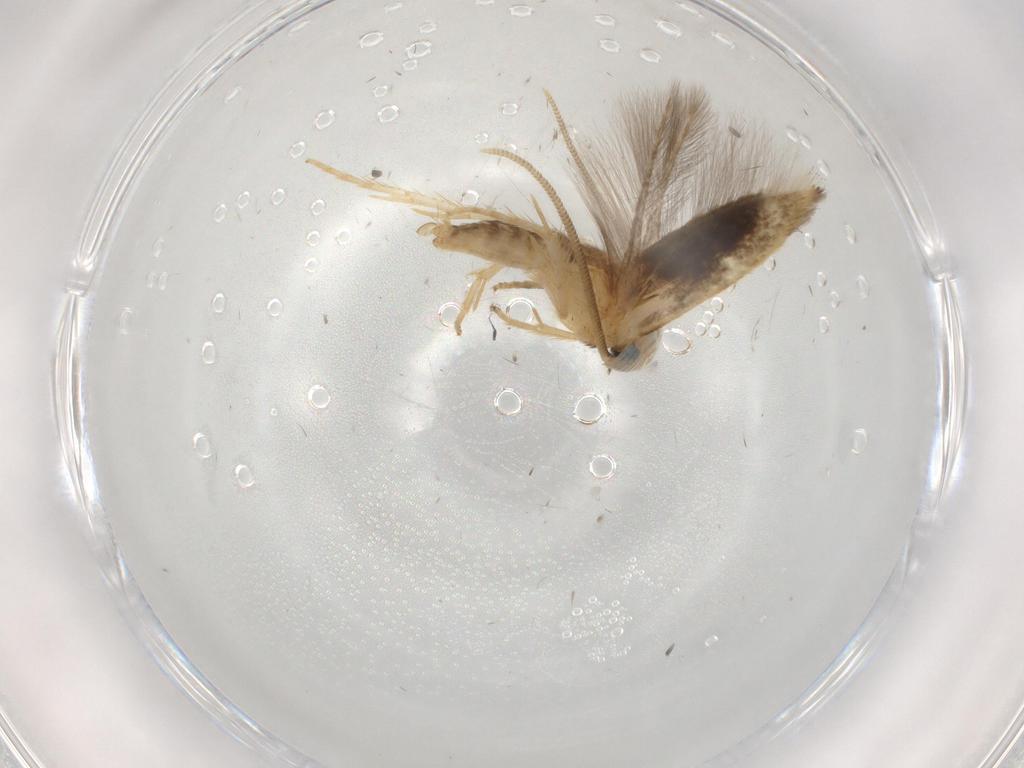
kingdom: Animalia
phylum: Arthropoda
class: Insecta
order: Lepidoptera
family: Opostegidae
